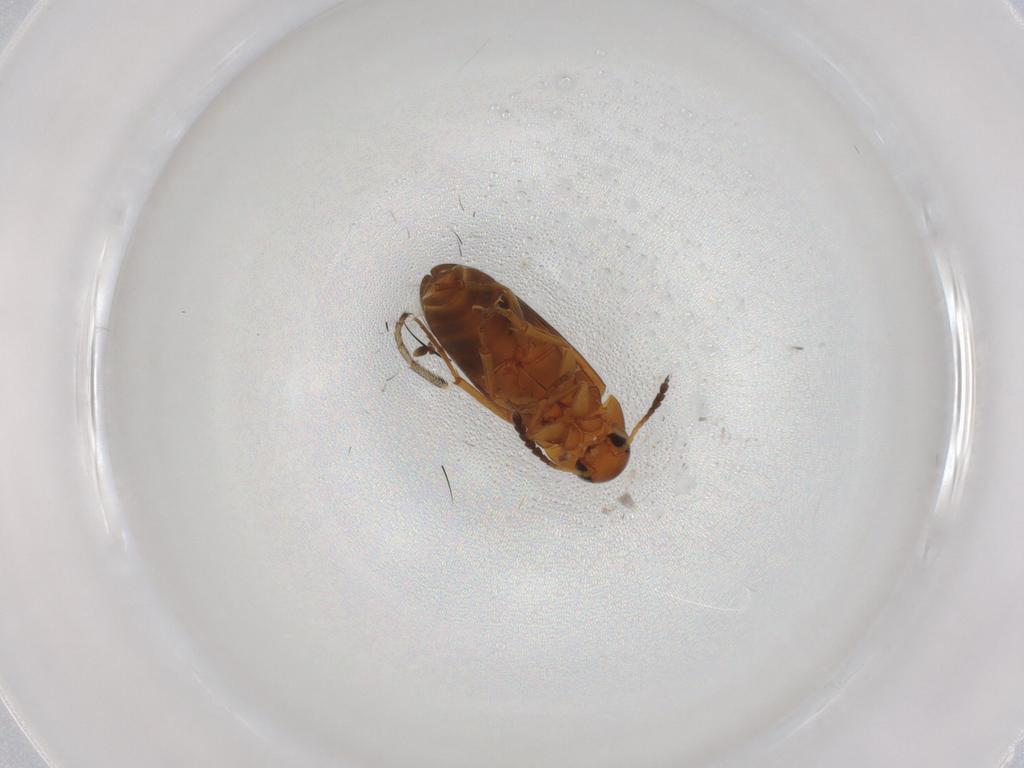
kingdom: Animalia
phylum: Arthropoda
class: Insecta
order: Coleoptera
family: Scraptiidae
